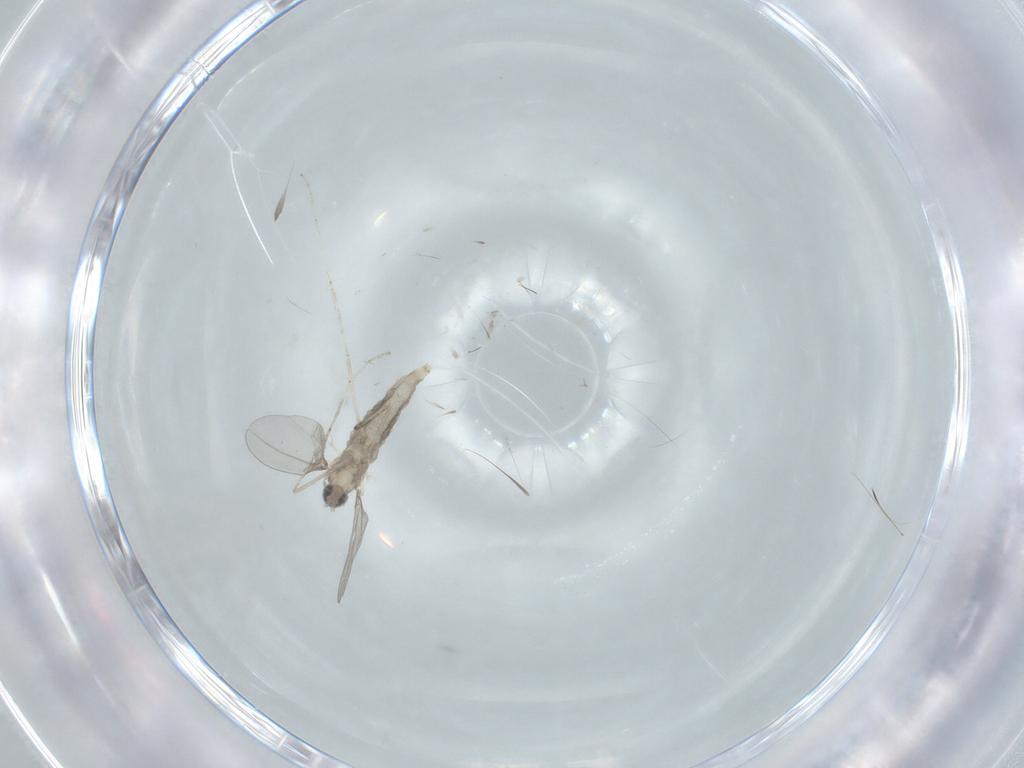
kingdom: Animalia
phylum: Arthropoda
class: Insecta
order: Diptera
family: Cecidomyiidae
